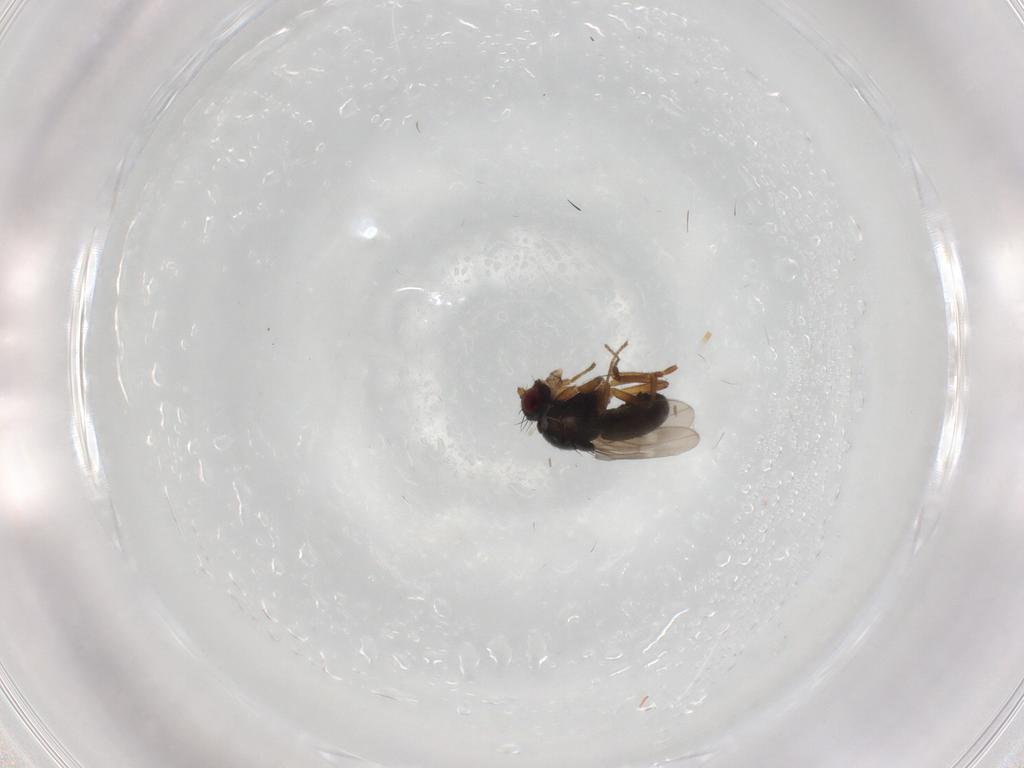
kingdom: Animalia
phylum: Arthropoda
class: Insecta
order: Diptera
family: Sphaeroceridae
